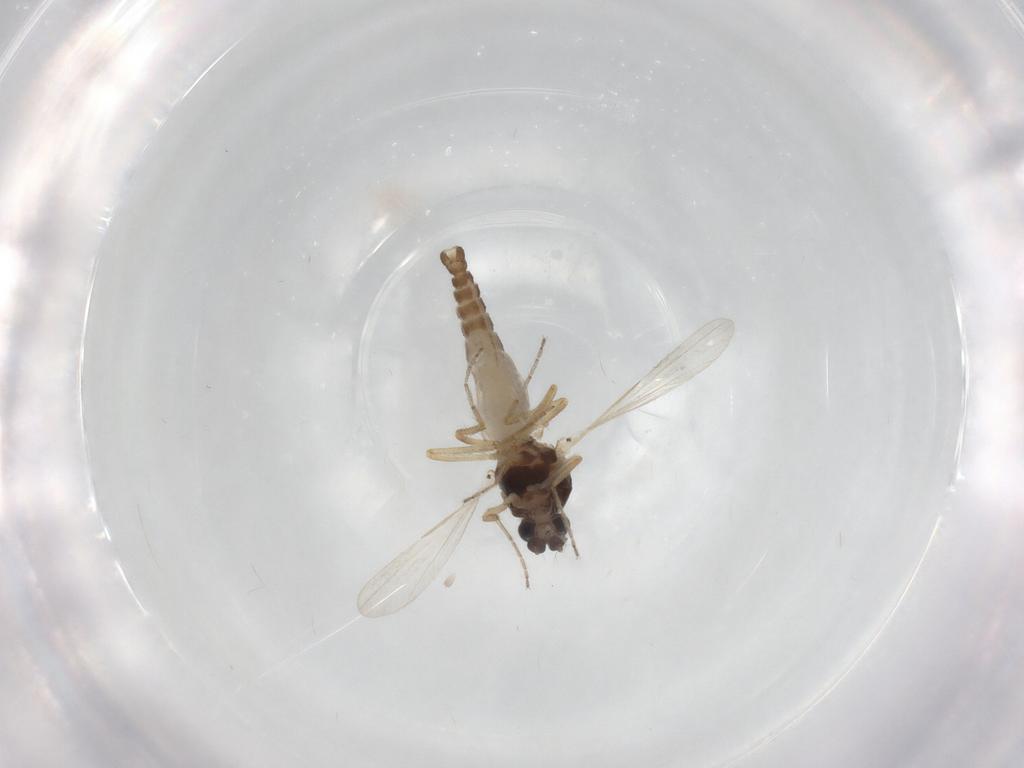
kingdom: Animalia
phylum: Arthropoda
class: Insecta
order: Diptera
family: Ceratopogonidae
